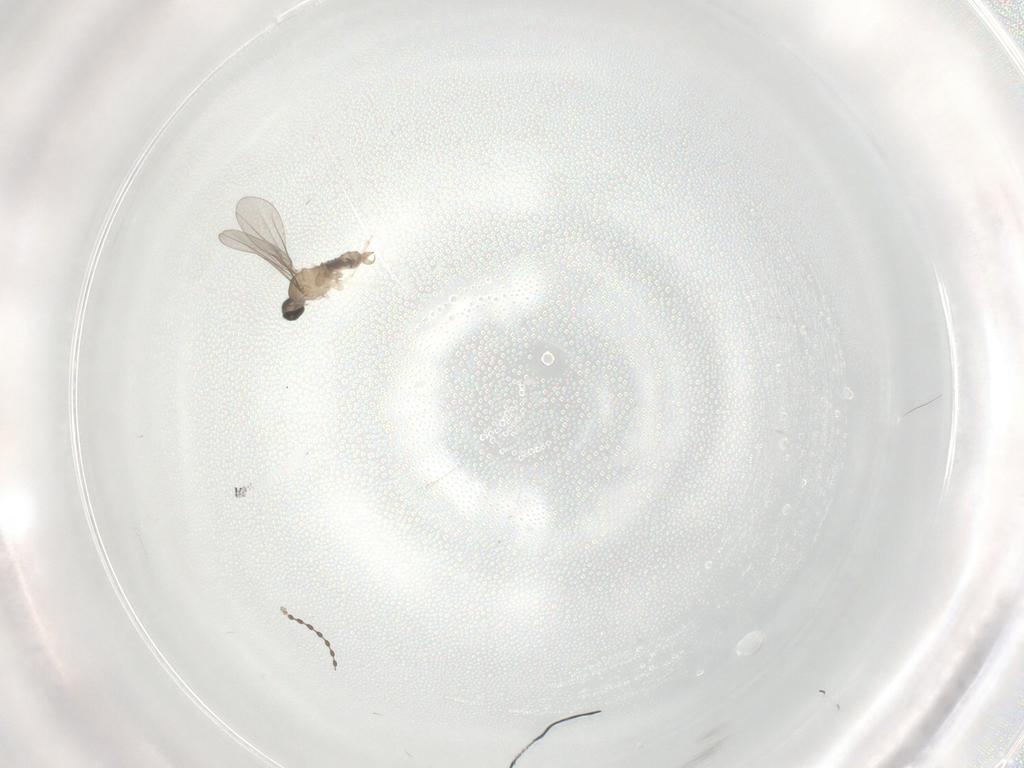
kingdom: Animalia
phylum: Arthropoda
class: Insecta
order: Diptera
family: Cecidomyiidae
